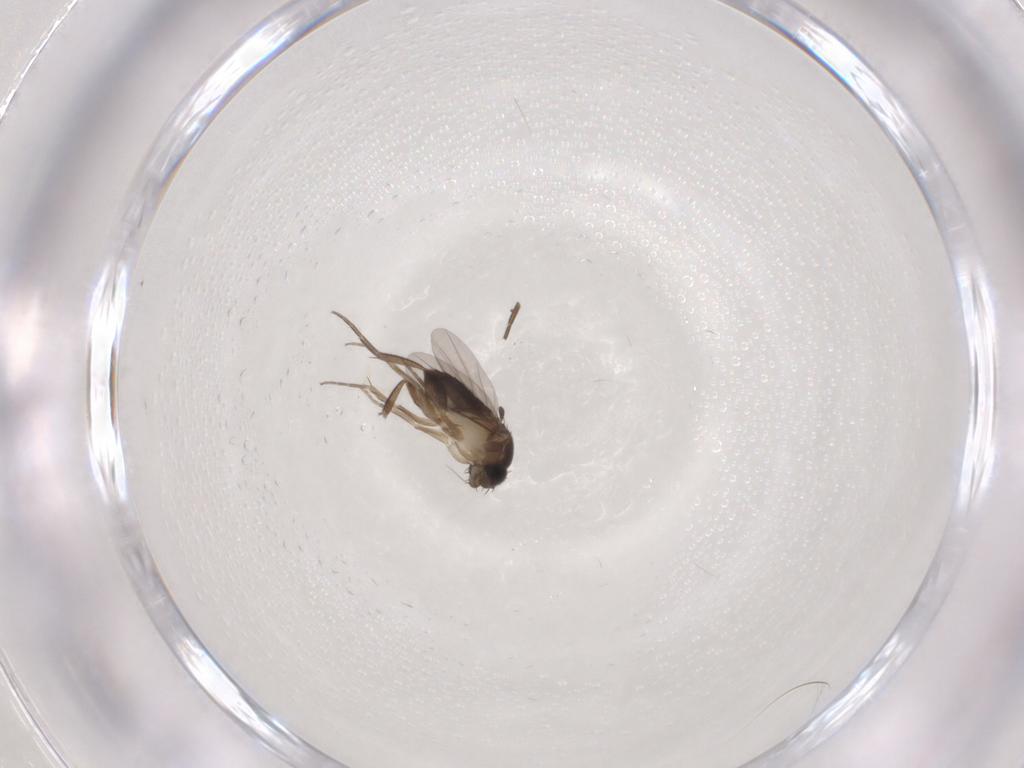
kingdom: Animalia
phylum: Arthropoda
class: Insecta
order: Diptera
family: Phoridae
